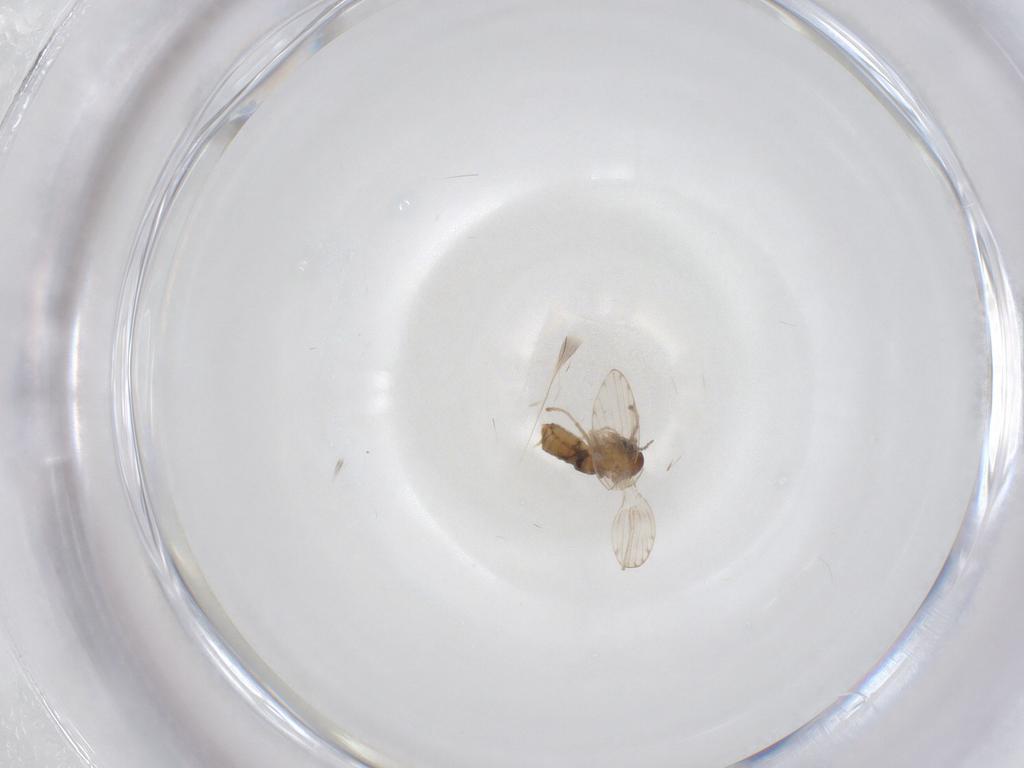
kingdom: Animalia
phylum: Arthropoda
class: Insecta
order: Diptera
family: Psychodidae
